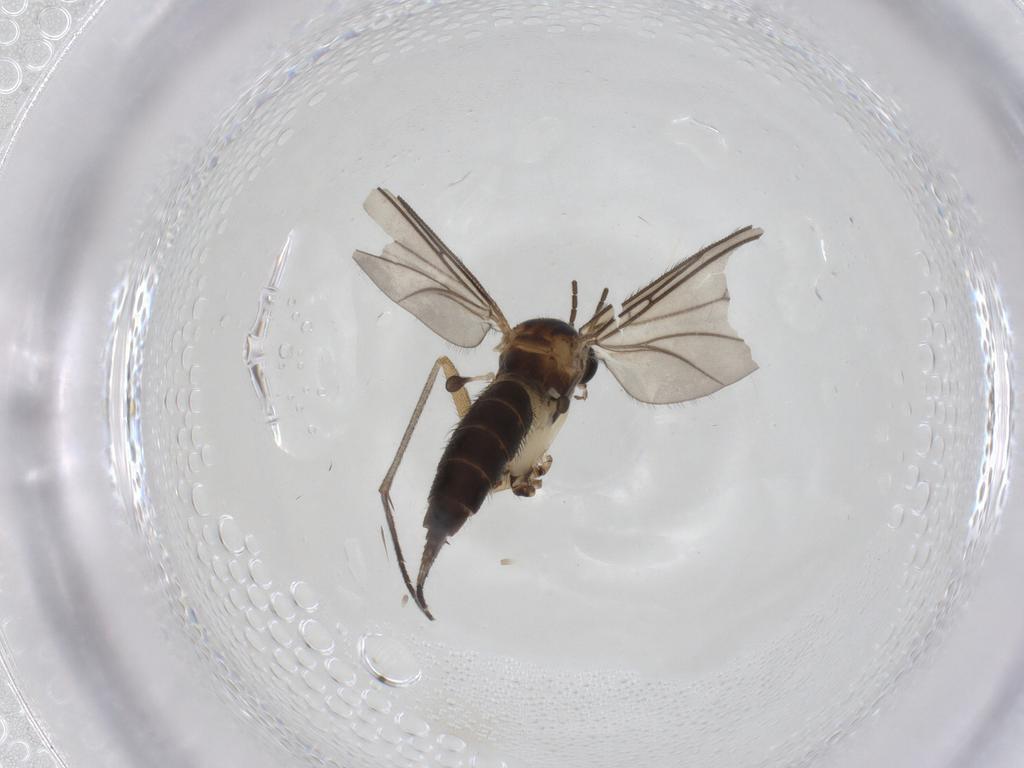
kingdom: Animalia
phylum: Arthropoda
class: Insecta
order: Diptera
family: Sciaridae
